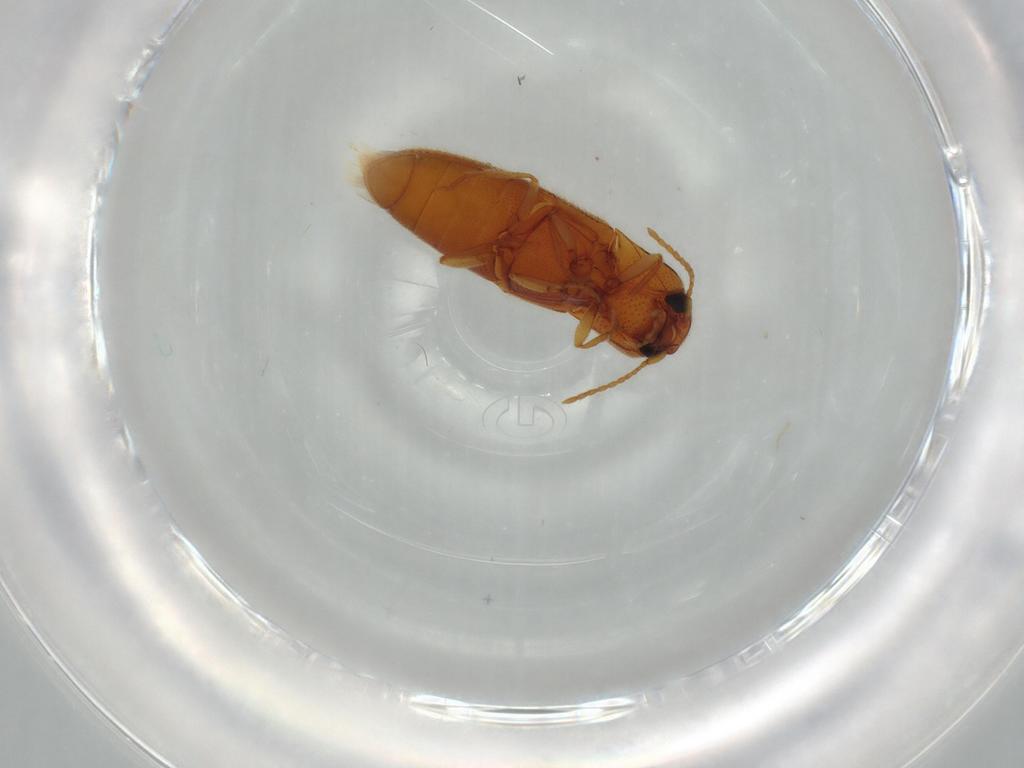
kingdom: Animalia
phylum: Arthropoda
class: Insecta
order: Coleoptera
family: Elateridae
